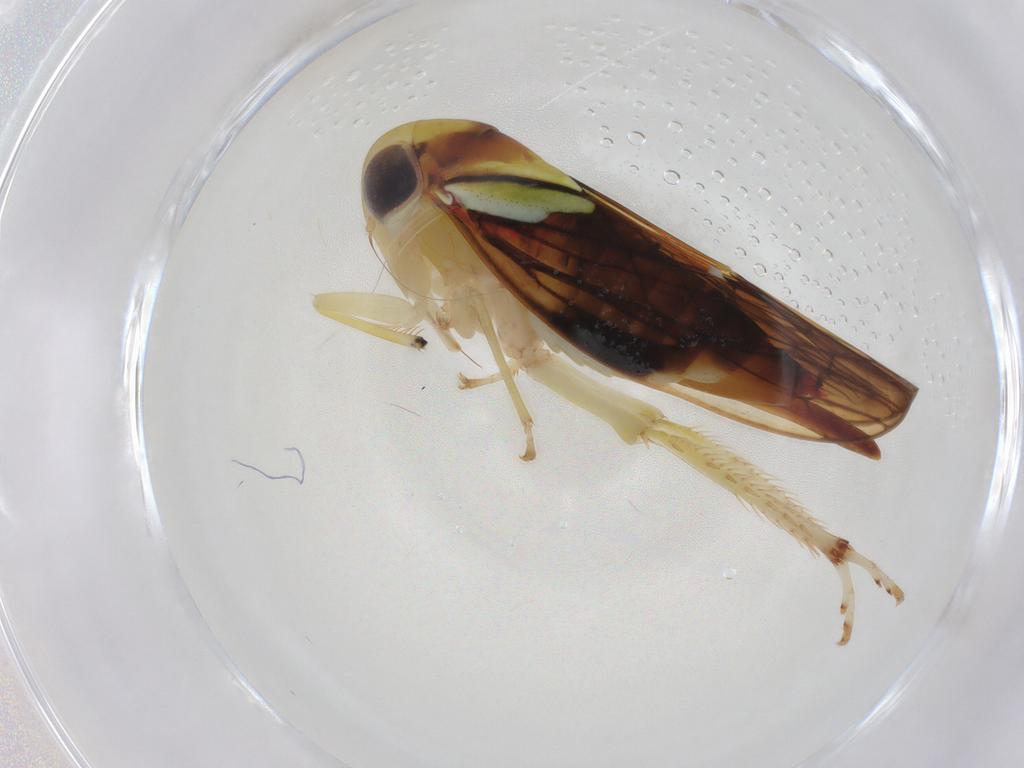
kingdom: Animalia
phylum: Arthropoda
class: Insecta
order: Hemiptera
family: Cicadellidae
